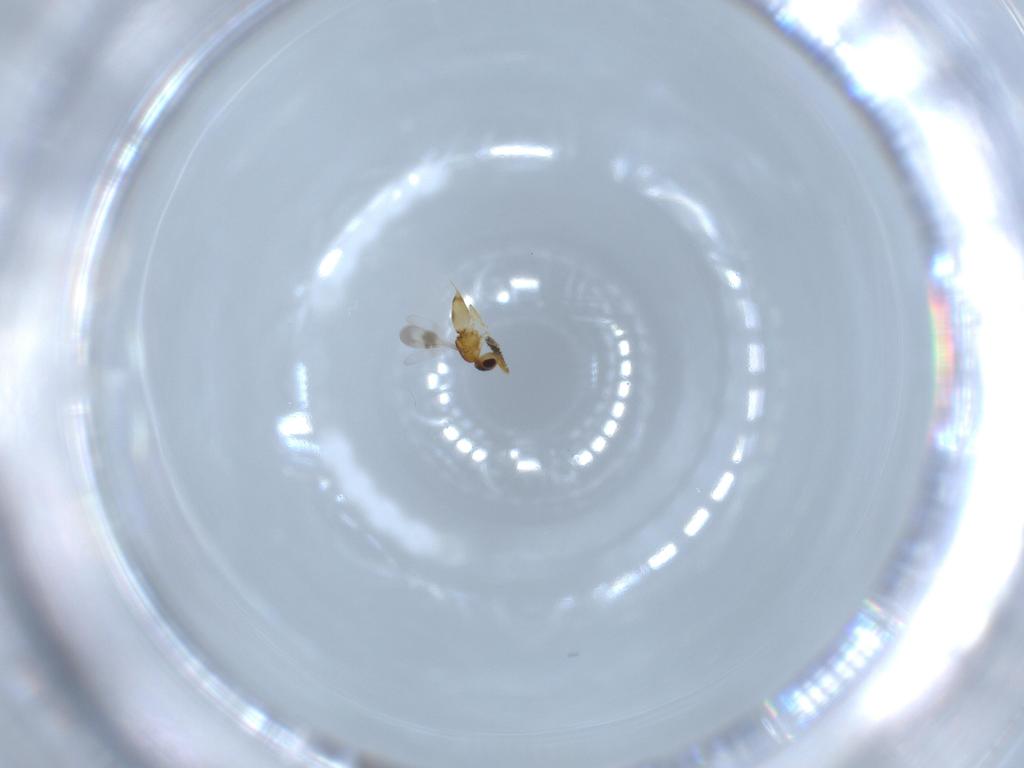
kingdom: Animalia
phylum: Arthropoda
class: Insecta
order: Hymenoptera
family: Ceraphronidae
